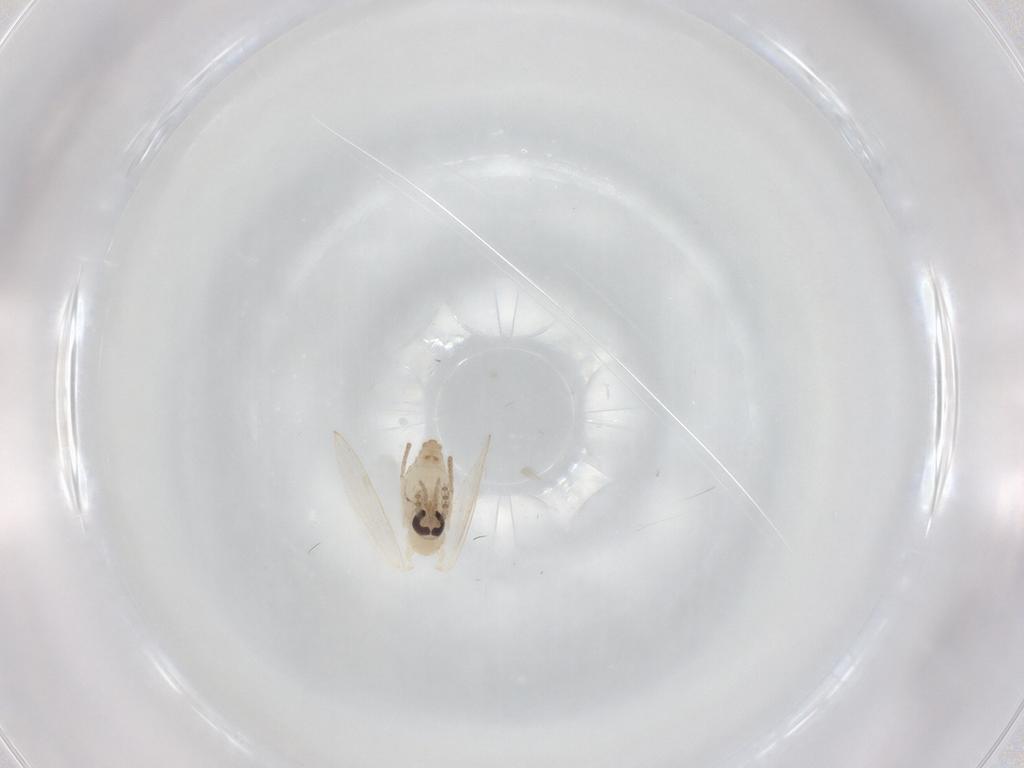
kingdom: Animalia
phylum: Arthropoda
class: Insecta
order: Diptera
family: Psychodidae
